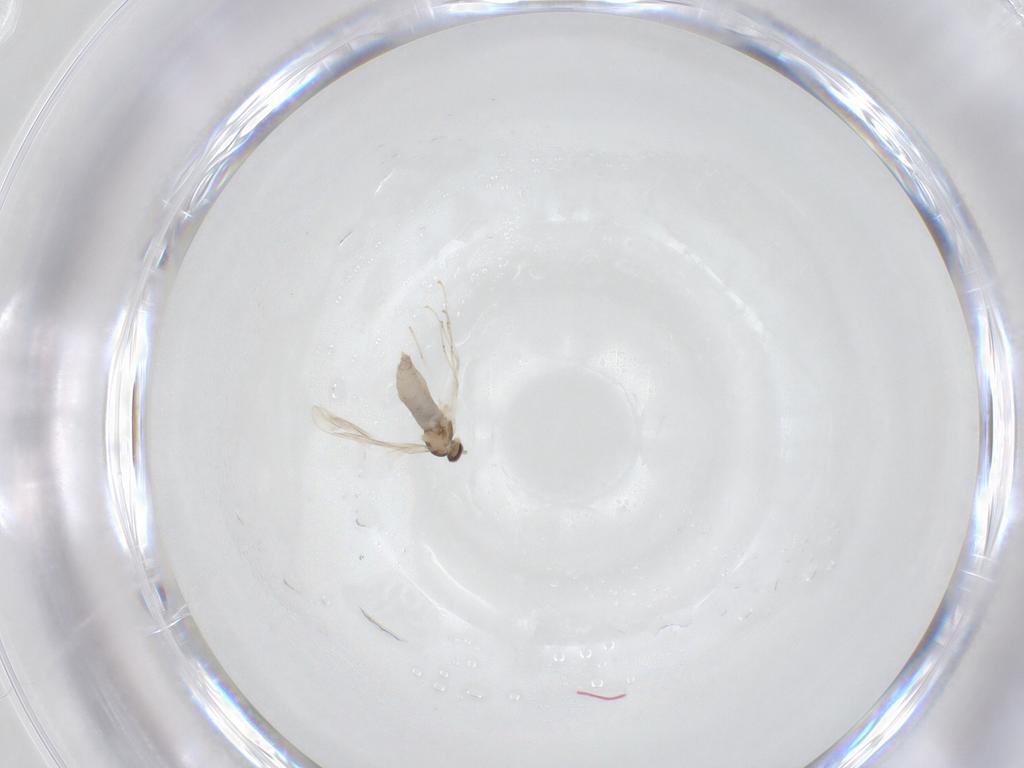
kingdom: Animalia
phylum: Arthropoda
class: Insecta
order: Diptera
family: Cecidomyiidae
